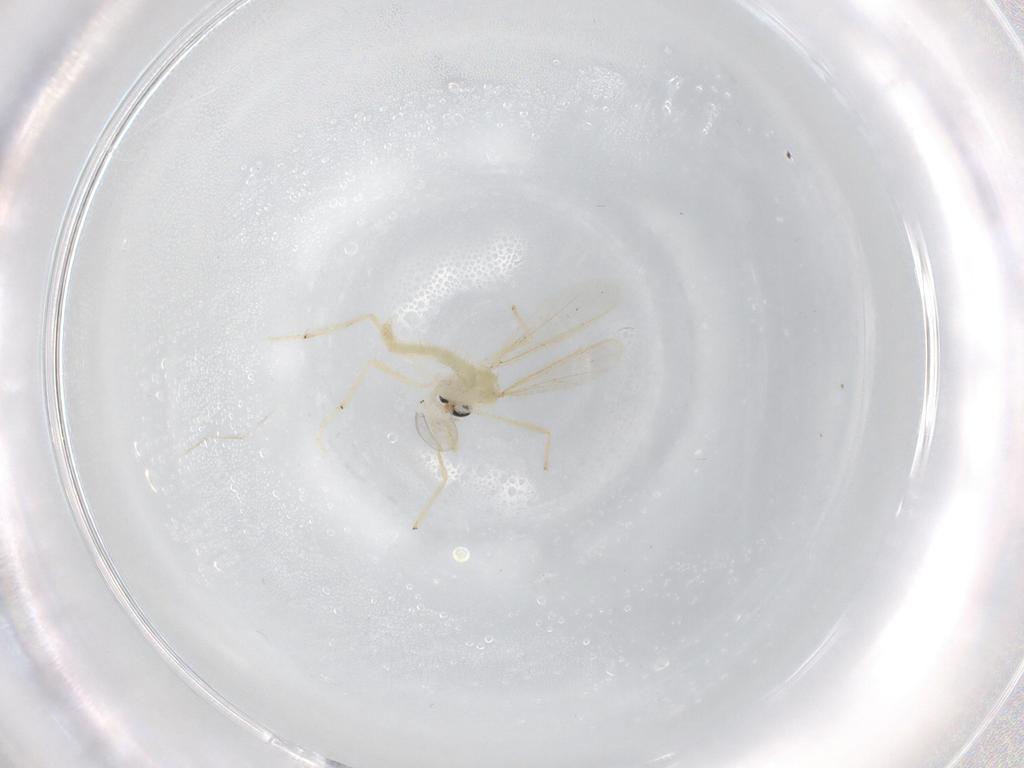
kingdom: Animalia
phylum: Arthropoda
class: Insecta
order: Diptera
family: Chironomidae
